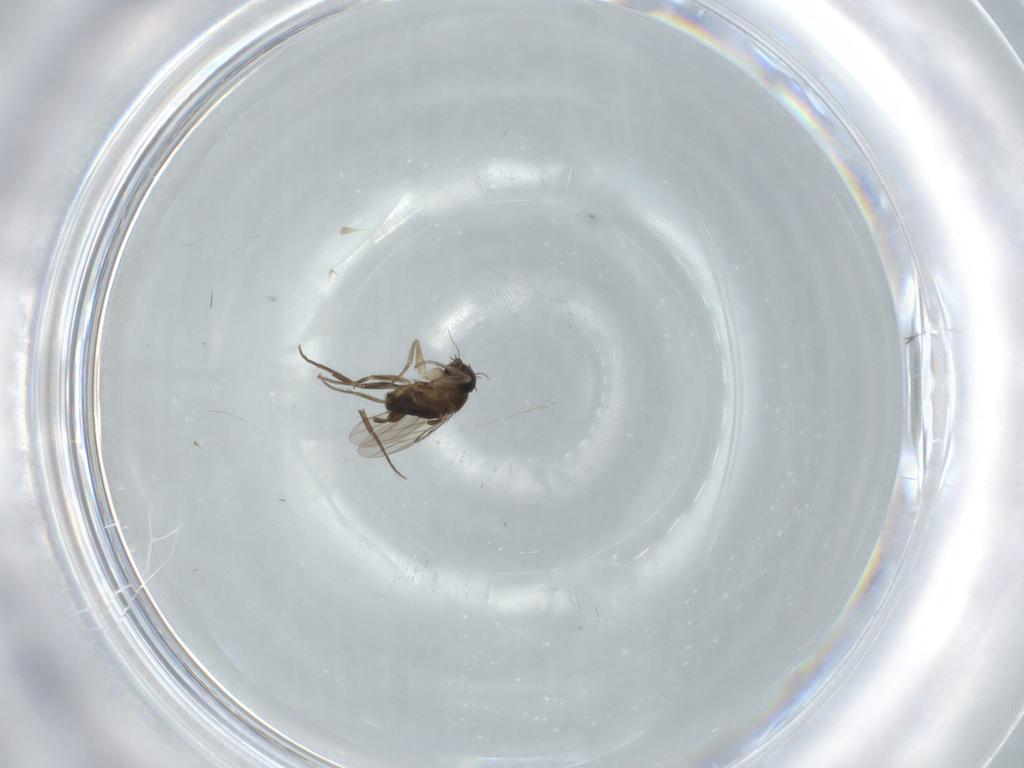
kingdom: Animalia
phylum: Arthropoda
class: Insecta
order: Diptera
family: Phoridae
